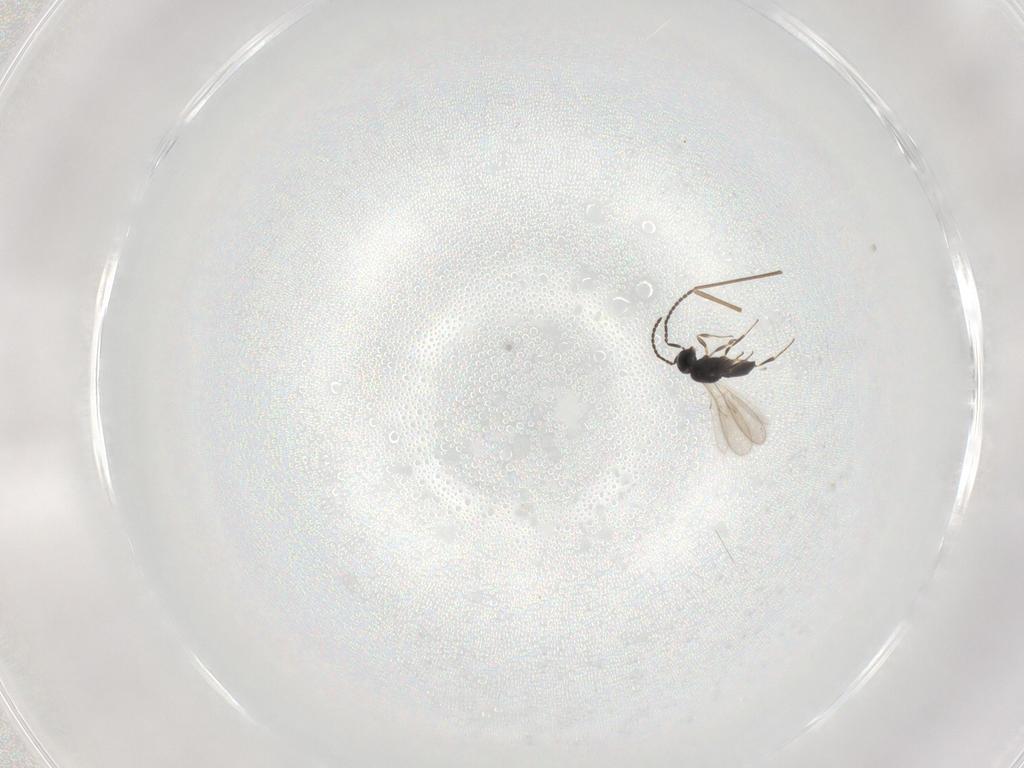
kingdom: Animalia
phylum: Arthropoda
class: Insecta
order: Hymenoptera
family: Scelionidae
